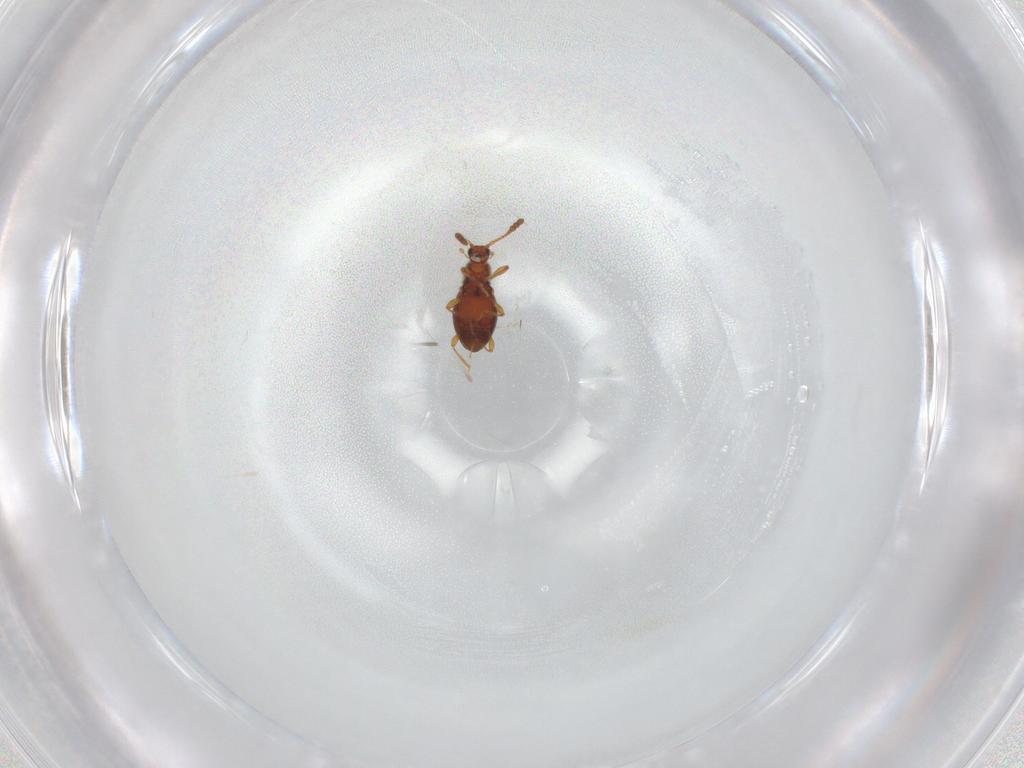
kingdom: Animalia
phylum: Arthropoda
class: Insecta
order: Coleoptera
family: Staphylinidae
